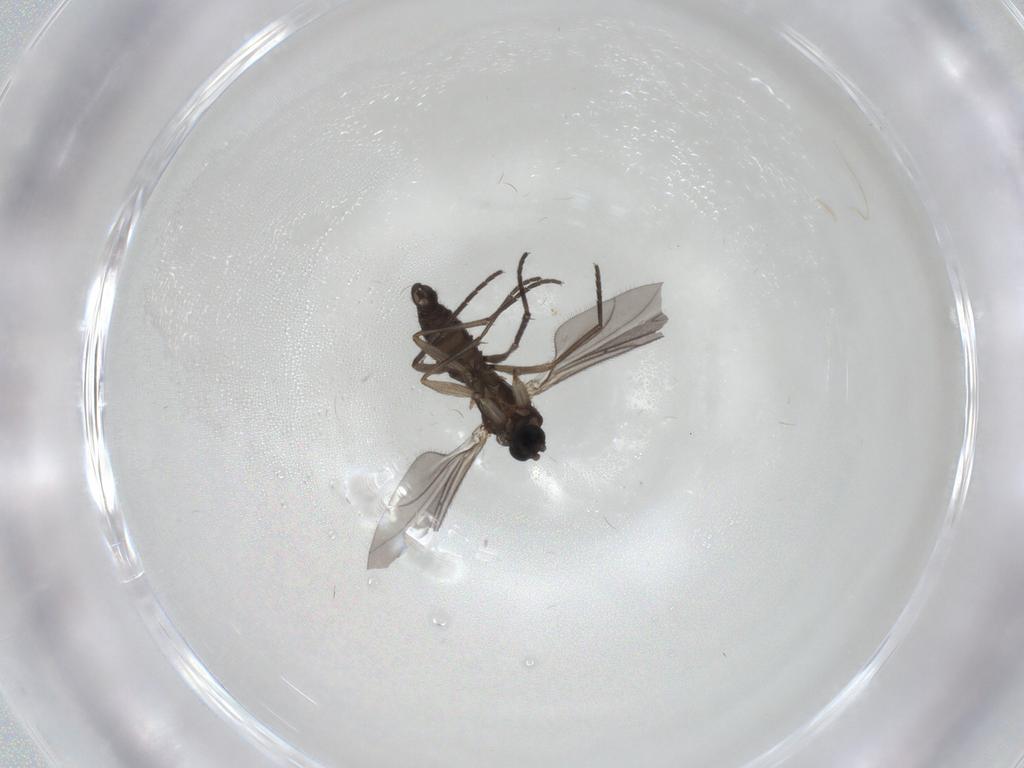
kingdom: Animalia
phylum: Arthropoda
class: Insecta
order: Diptera
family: Sciaridae
